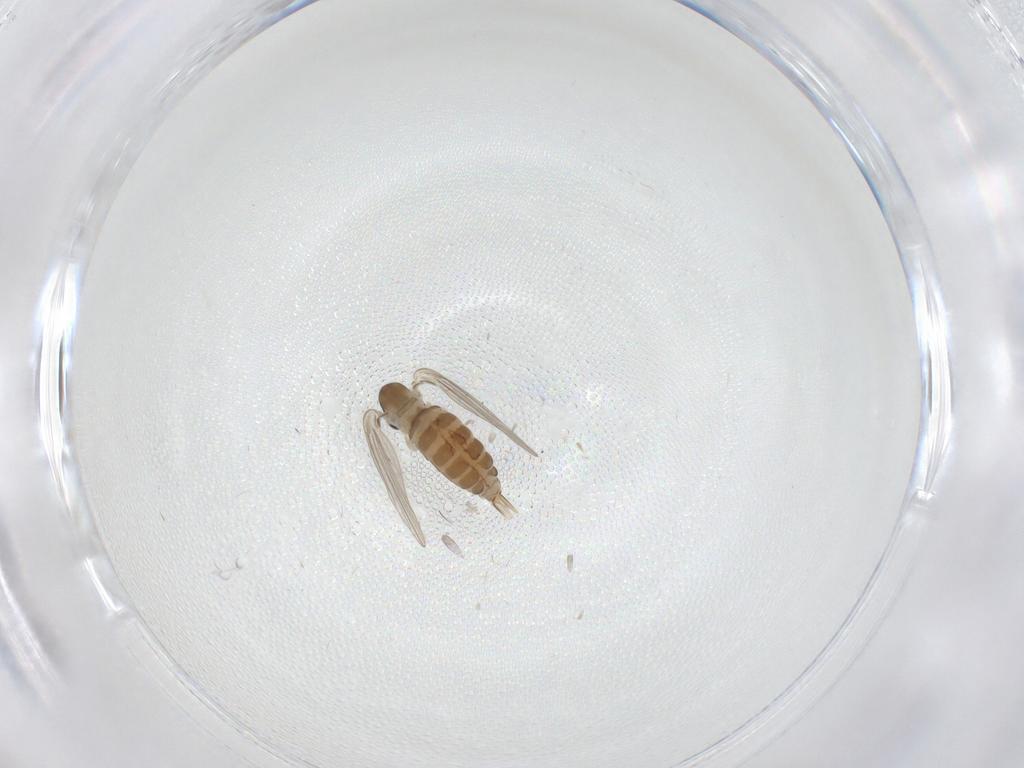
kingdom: Animalia
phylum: Arthropoda
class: Insecta
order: Diptera
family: Psychodidae
